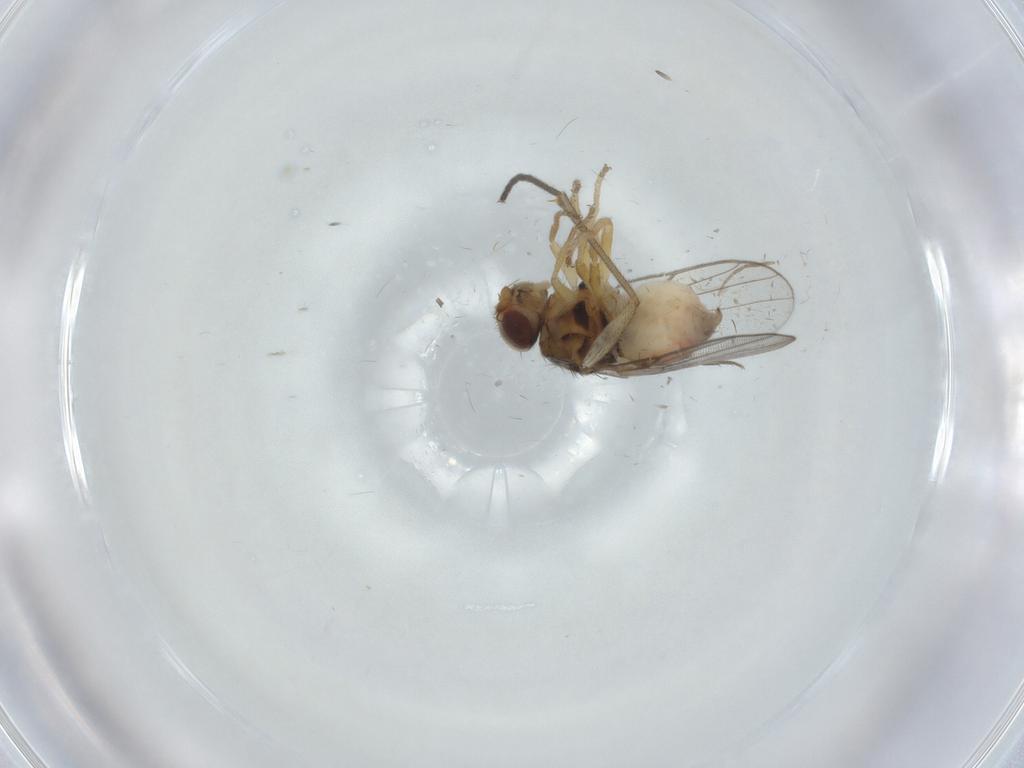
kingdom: Animalia
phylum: Arthropoda
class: Insecta
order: Diptera
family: Chloropidae
